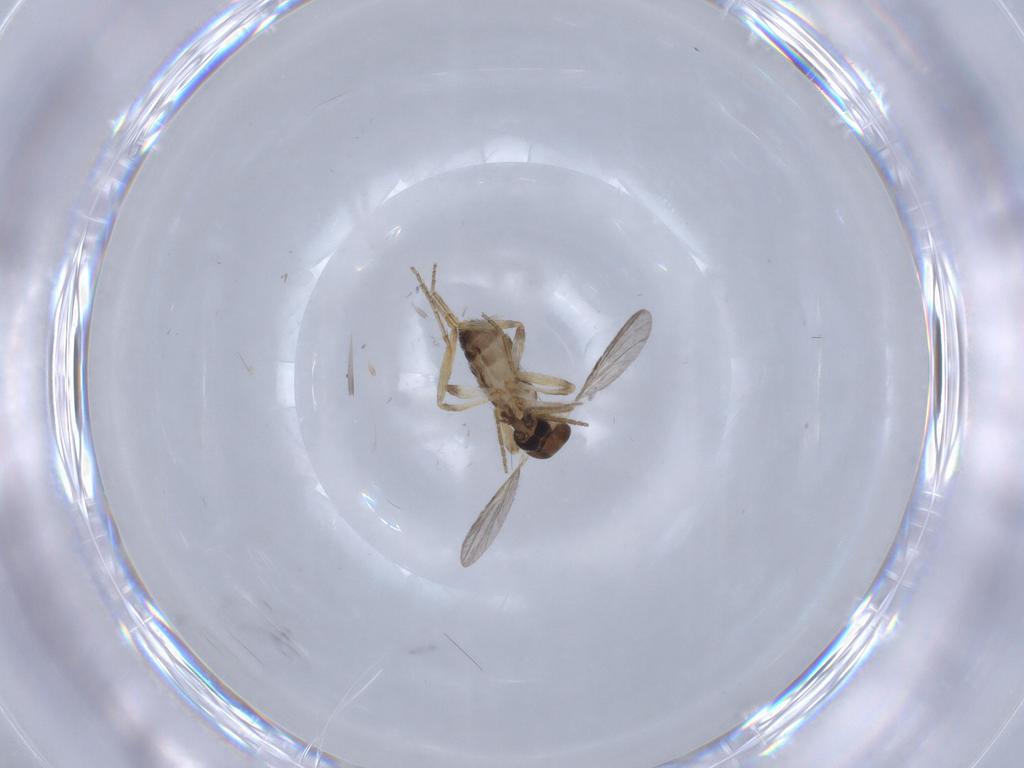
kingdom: Animalia
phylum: Arthropoda
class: Insecta
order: Diptera
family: Ceratopogonidae
